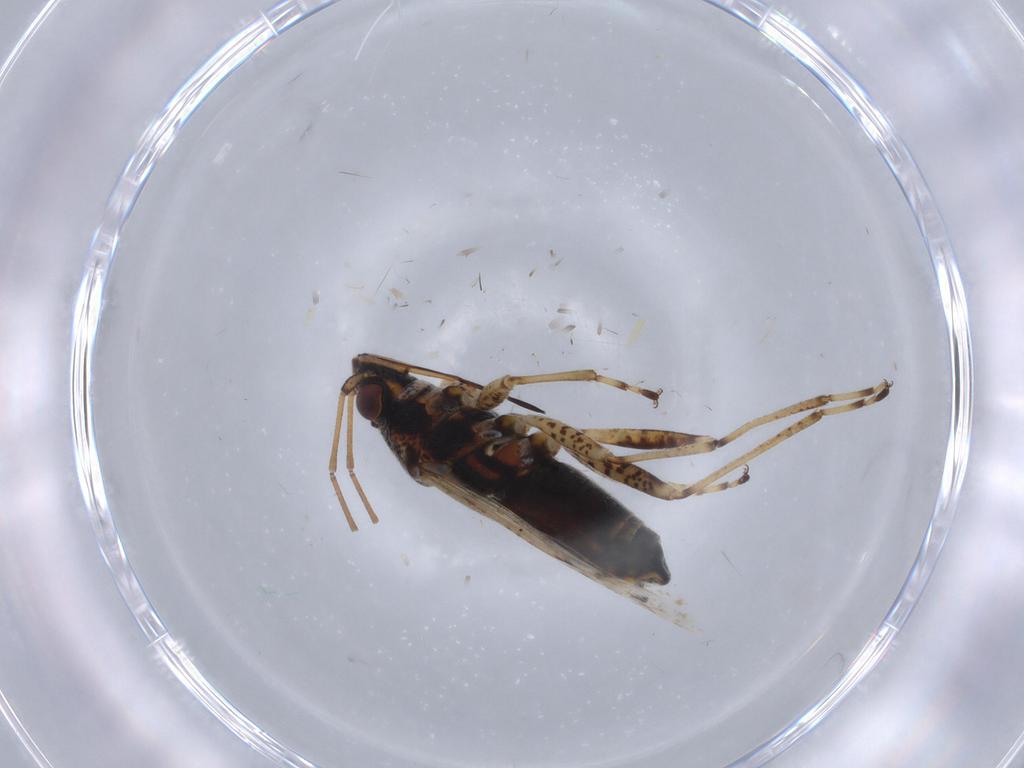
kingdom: Animalia
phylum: Arthropoda
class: Insecta
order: Hemiptera
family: Lygaeidae
